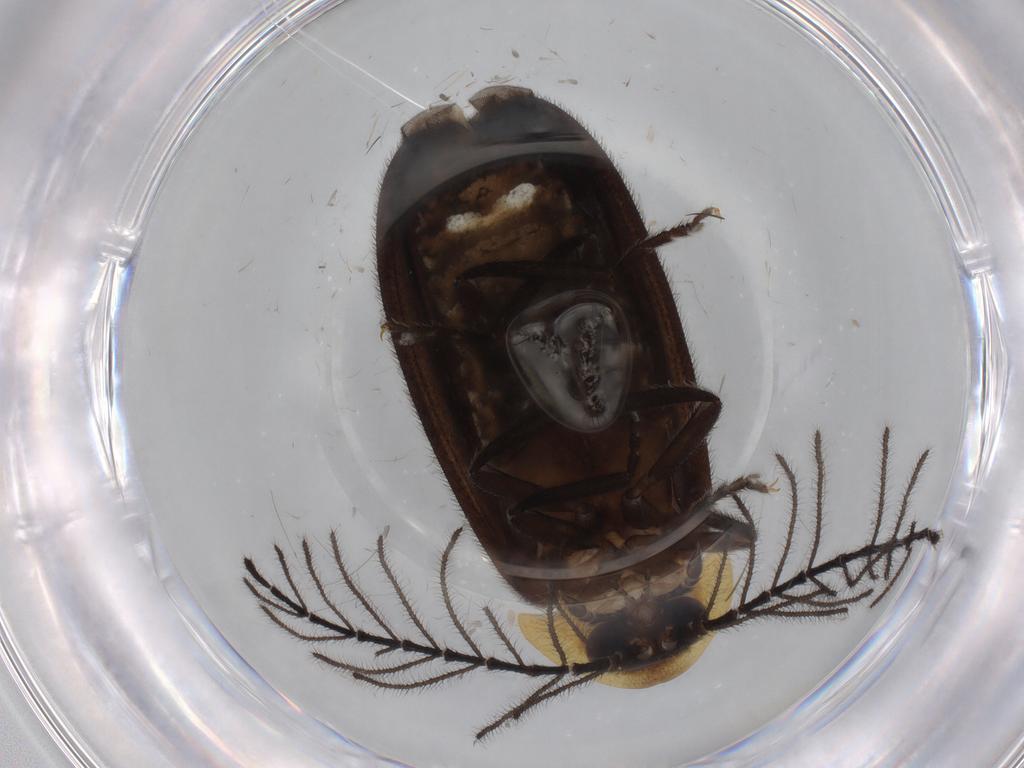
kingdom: Animalia
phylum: Arthropoda
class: Insecta
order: Coleoptera
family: Lampyridae
